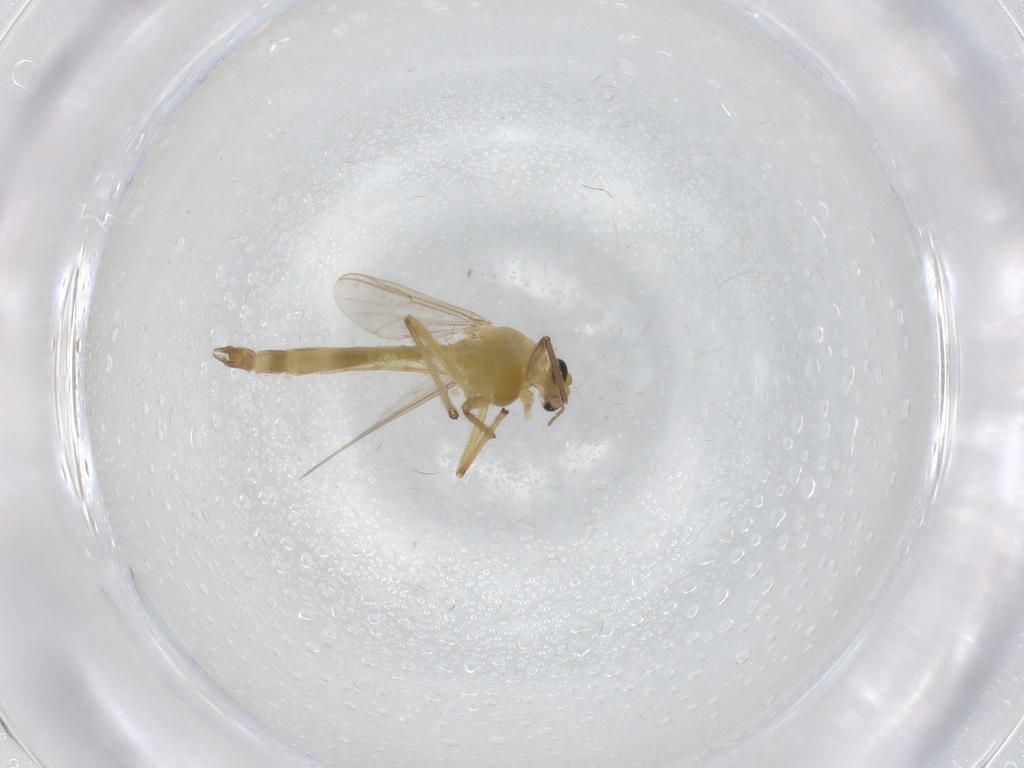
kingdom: Animalia
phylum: Arthropoda
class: Insecta
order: Diptera
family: Chironomidae
